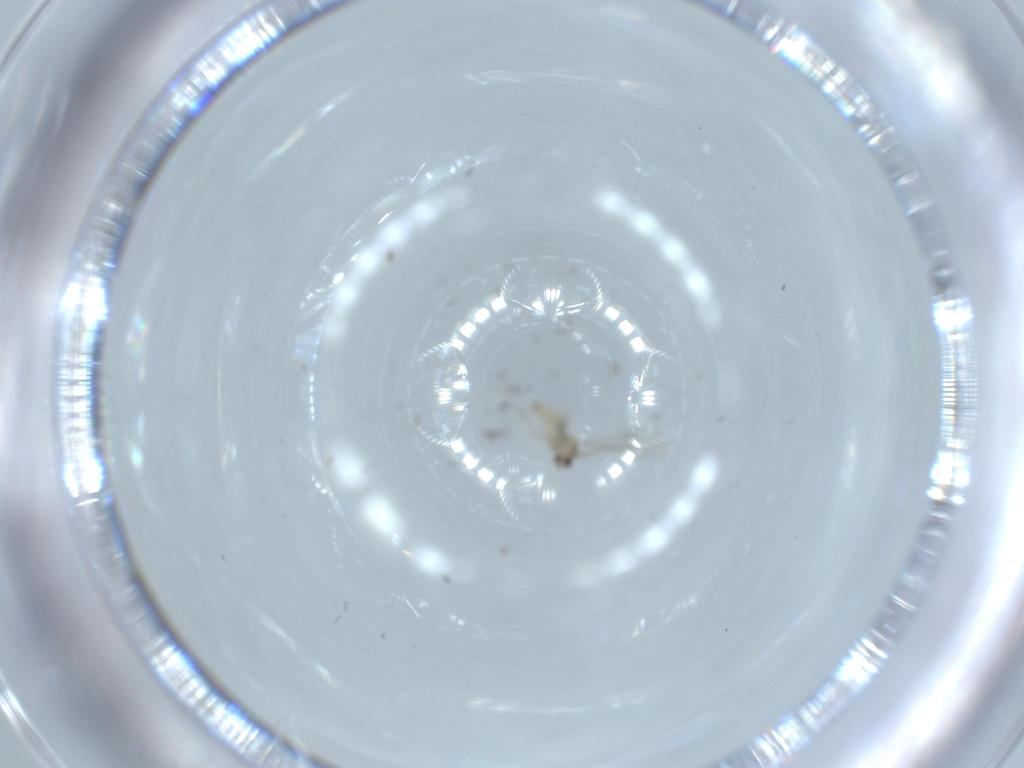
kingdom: Animalia
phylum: Arthropoda
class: Insecta
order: Diptera
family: Cecidomyiidae
